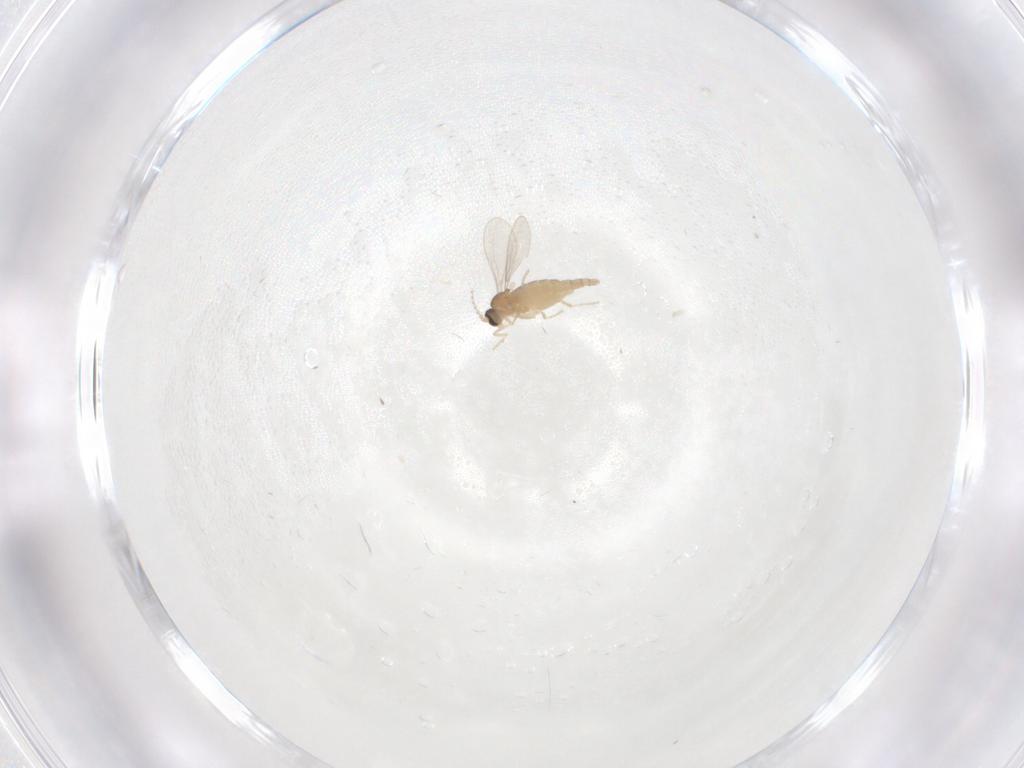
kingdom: Animalia
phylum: Arthropoda
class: Insecta
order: Diptera
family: Cecidomyiidae
